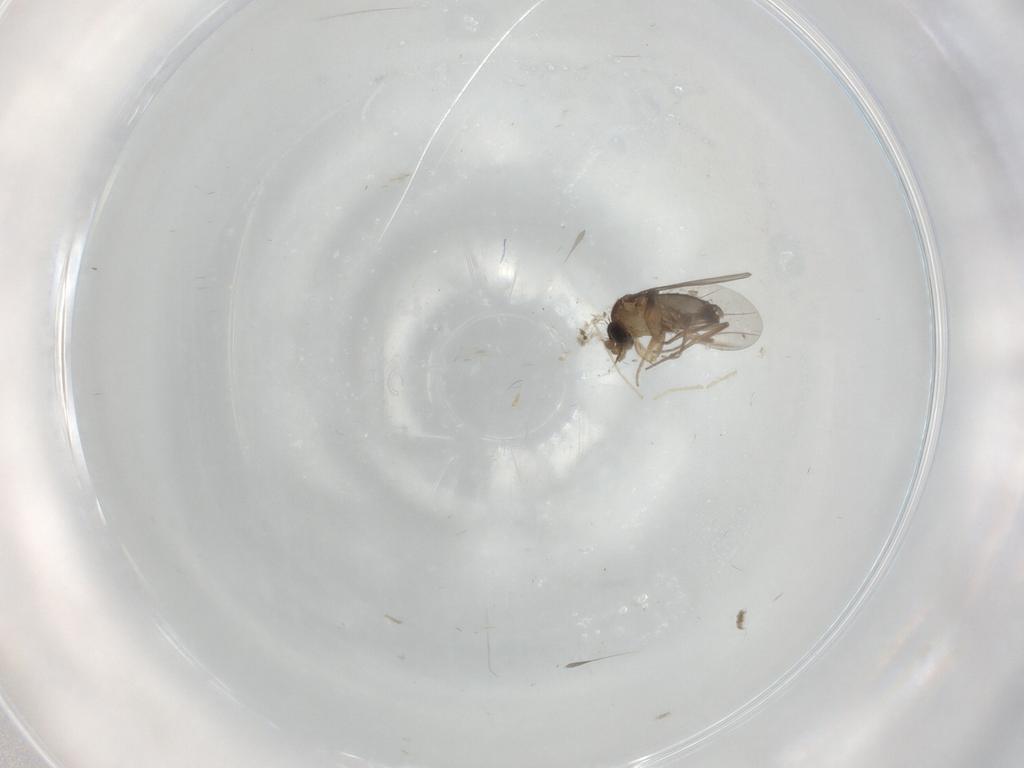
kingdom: Animalia
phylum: Arthropoda
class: Insecta
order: Diptera
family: Phoridae
